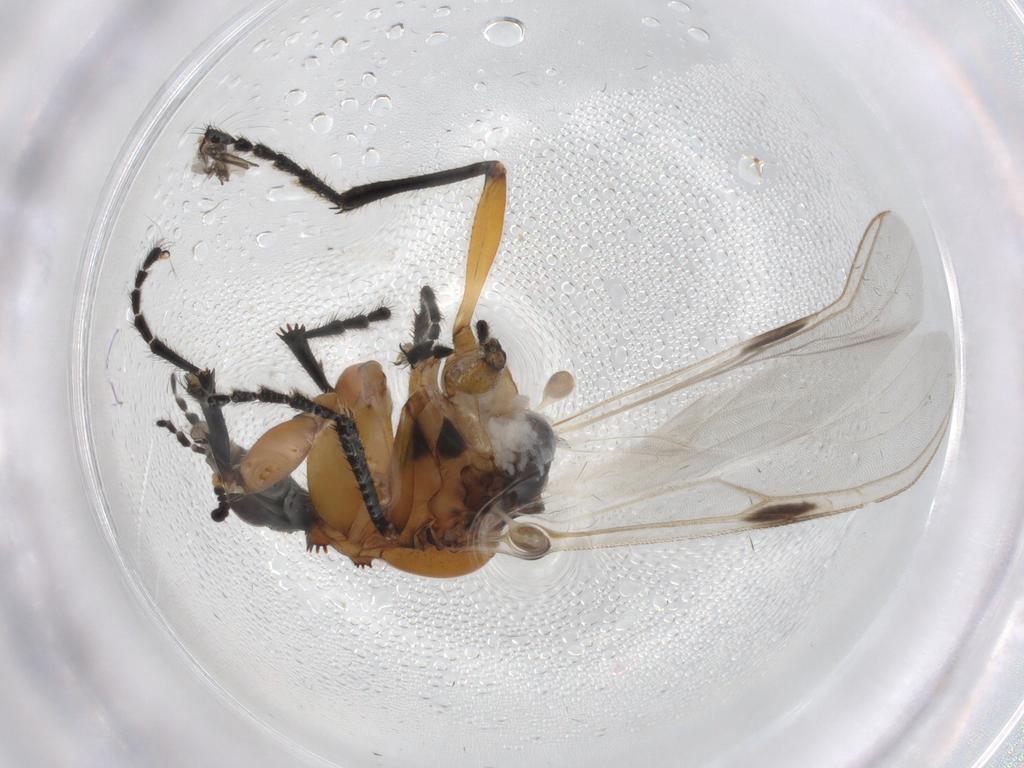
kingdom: Animalia
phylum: Arthropoda
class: Insecta
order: Diptera
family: Bibionidae
